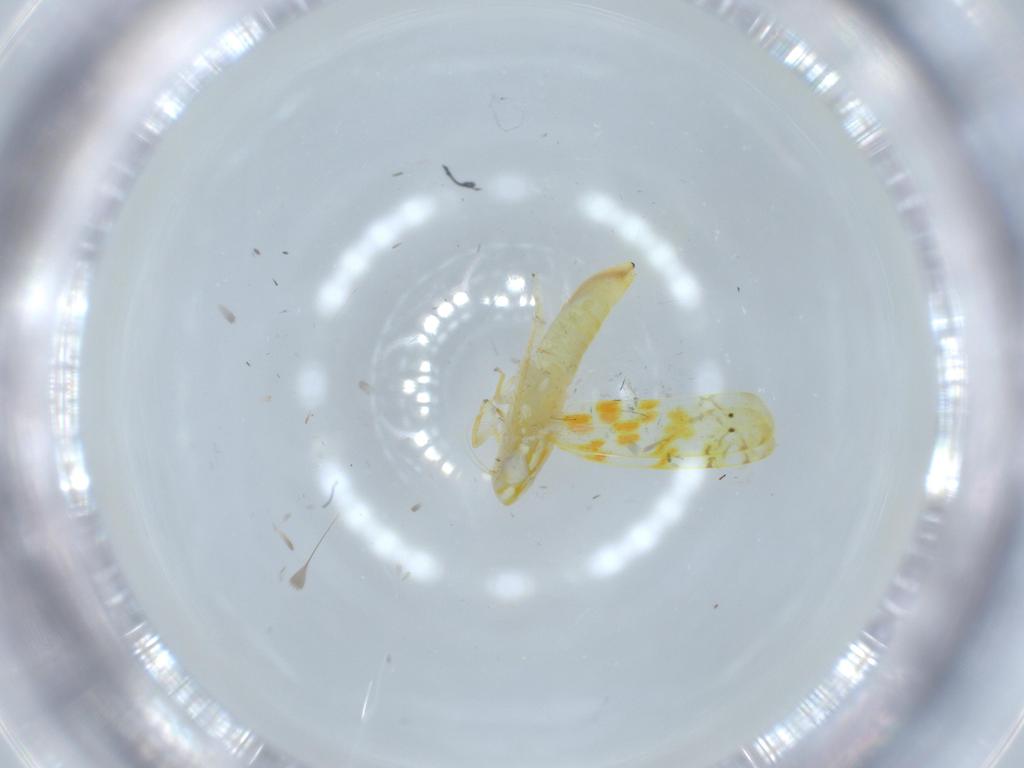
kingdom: Animalia
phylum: Arthropoda
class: Insecta
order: Hemiptera
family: Cicadellidae
